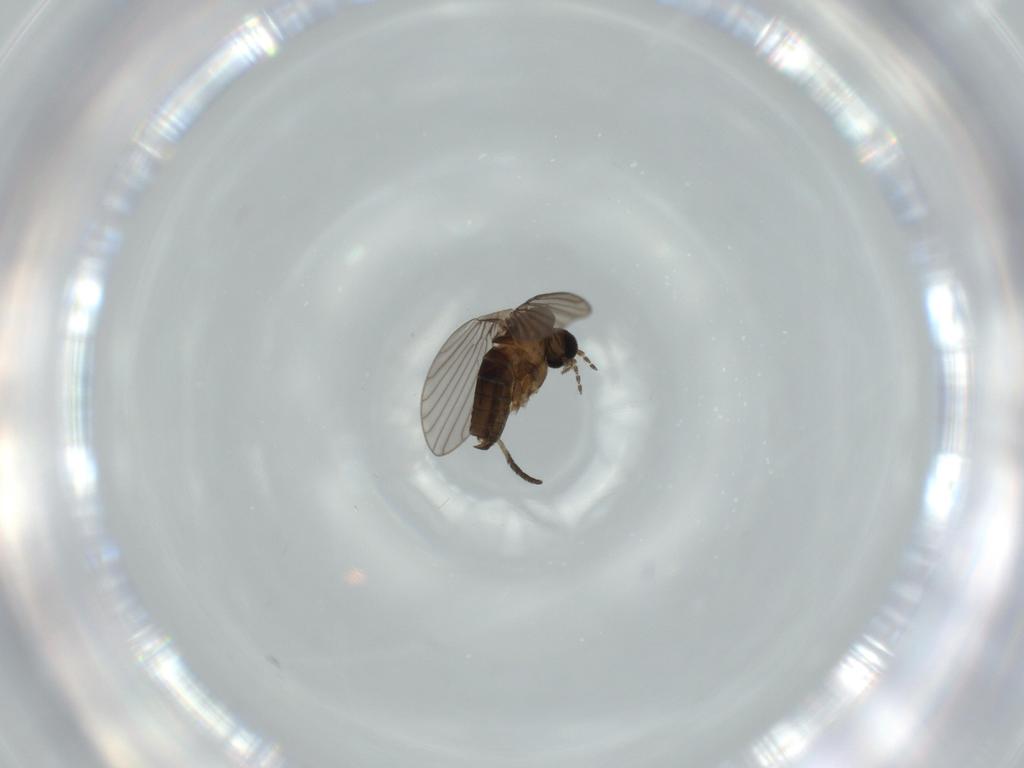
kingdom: Animalia
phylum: Arthropoda
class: Insecta
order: Diptera
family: Psychodidae
